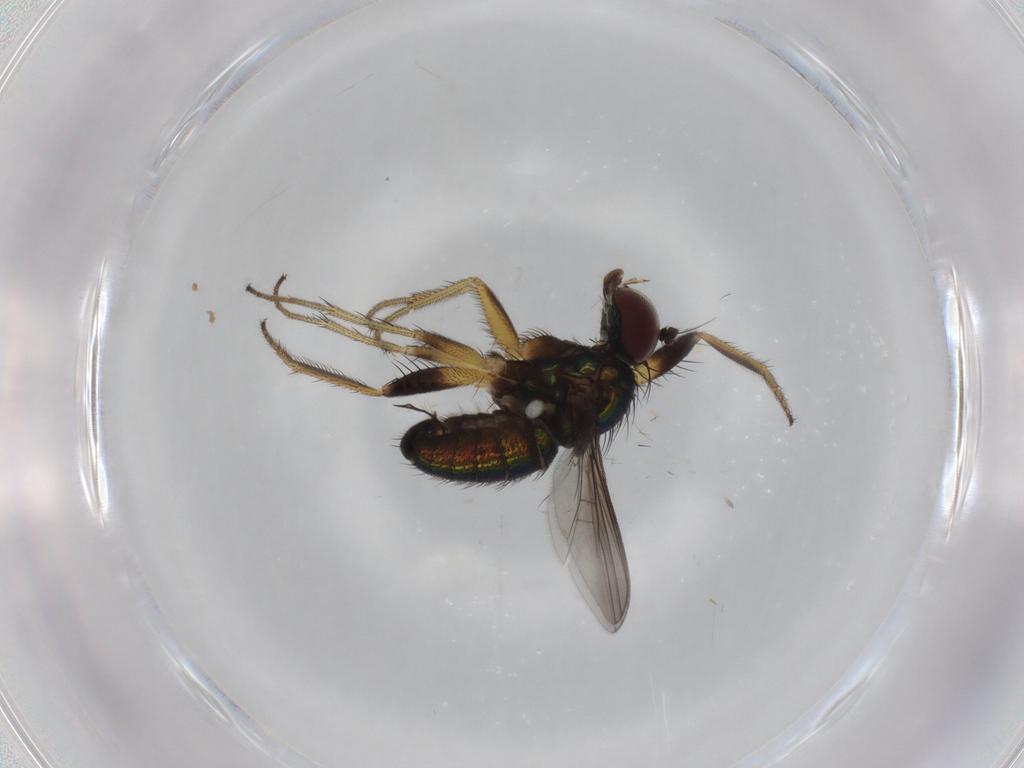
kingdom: Animalia
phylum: Arthropoda
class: Insecta
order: Diptera
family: Dolichopodidae
